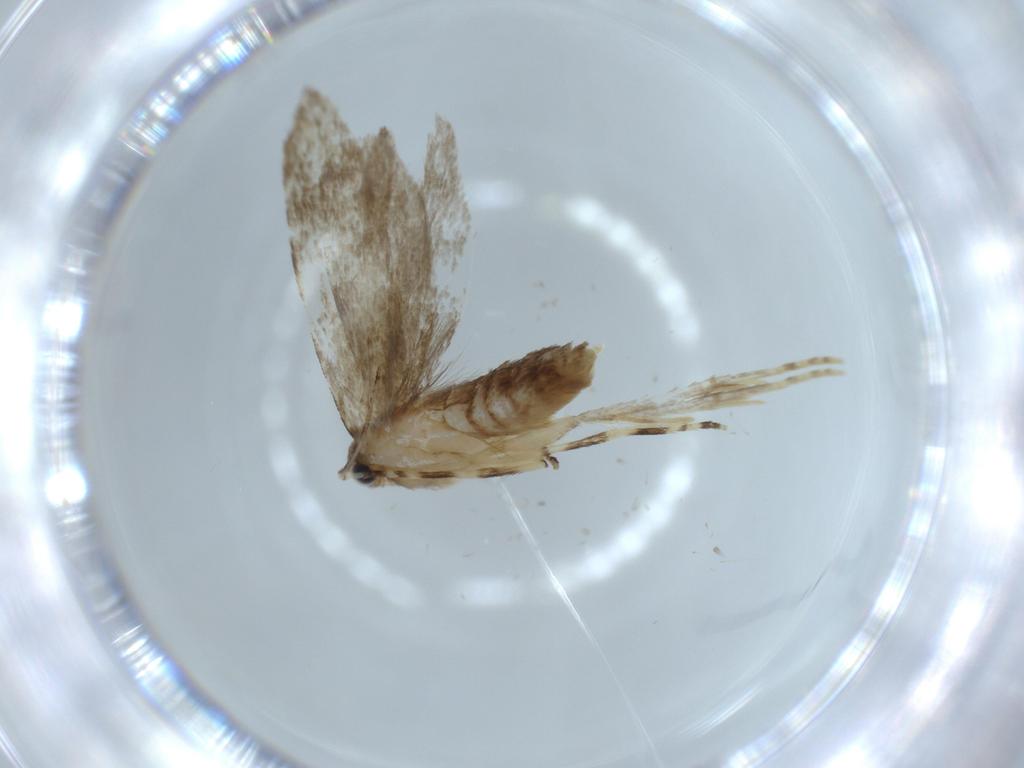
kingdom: Animalia
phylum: Arthropoda
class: Insecta
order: Lepidoptera
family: Tineidae
